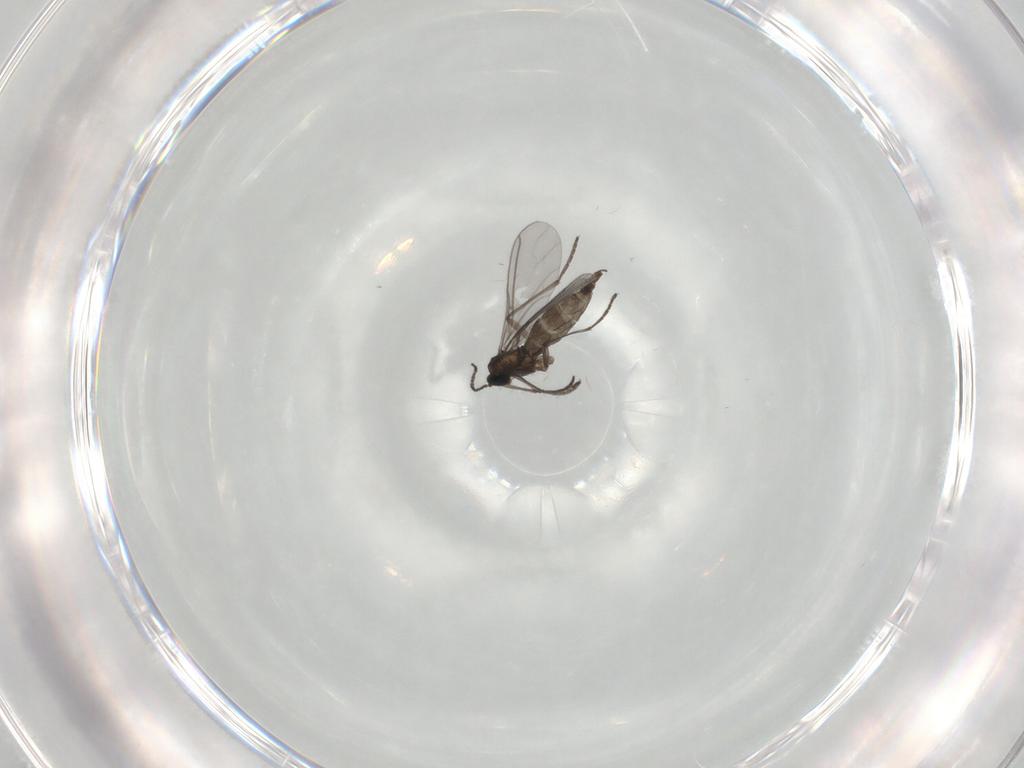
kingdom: Animalia
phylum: Arthropoda
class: Insecta
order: Diptera
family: Sciaridae
